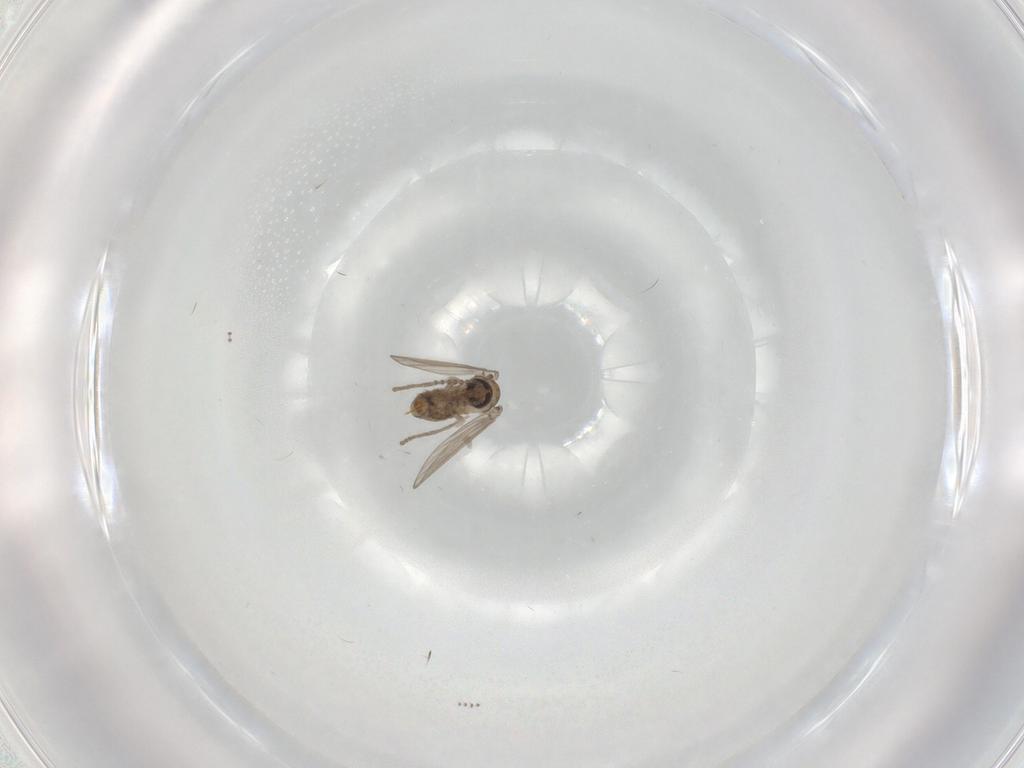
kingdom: Animalia
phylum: Arthropoda
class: Insecta
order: Diptera
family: Psychodidae
